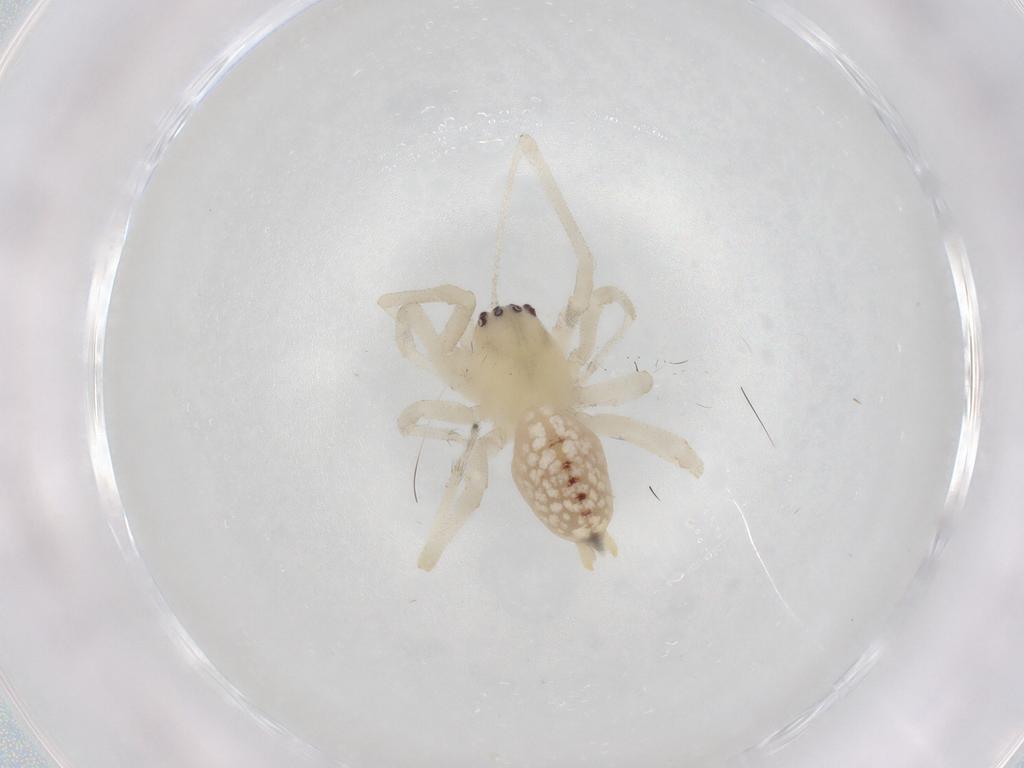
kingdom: Animalia
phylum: Arthropoda
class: Arachnida
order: Araneae
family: Cheiracanthiidae
